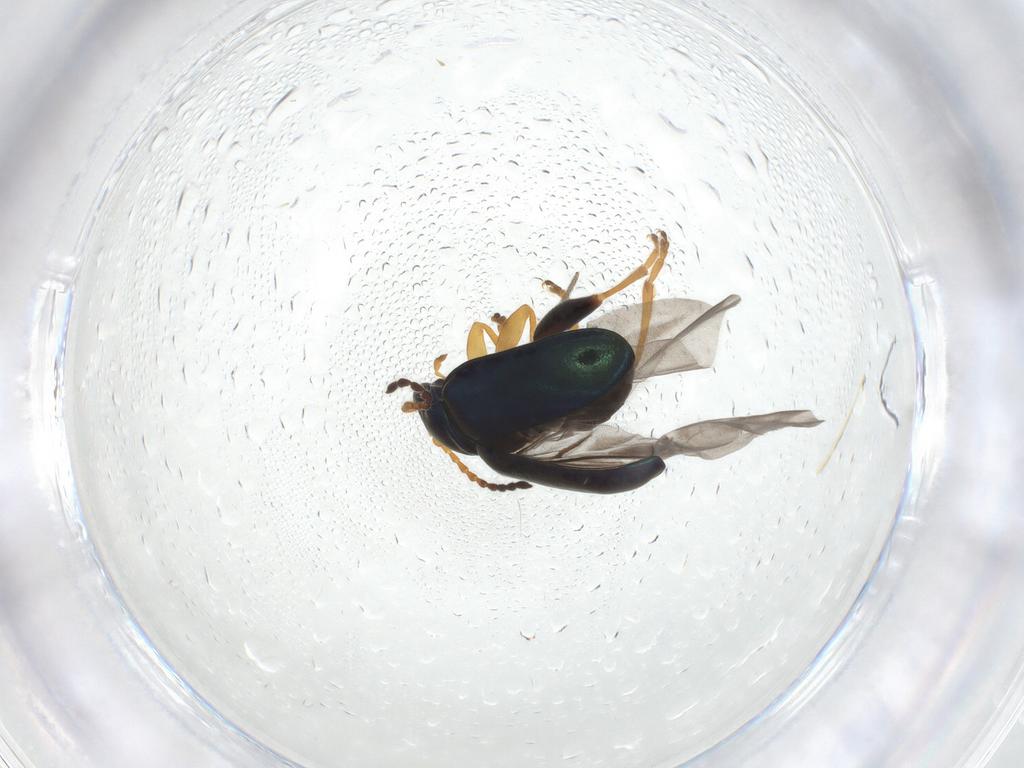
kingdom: Animalia
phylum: Arthropoda
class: Insecta
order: Coleoptera
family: Chrysomelidae
